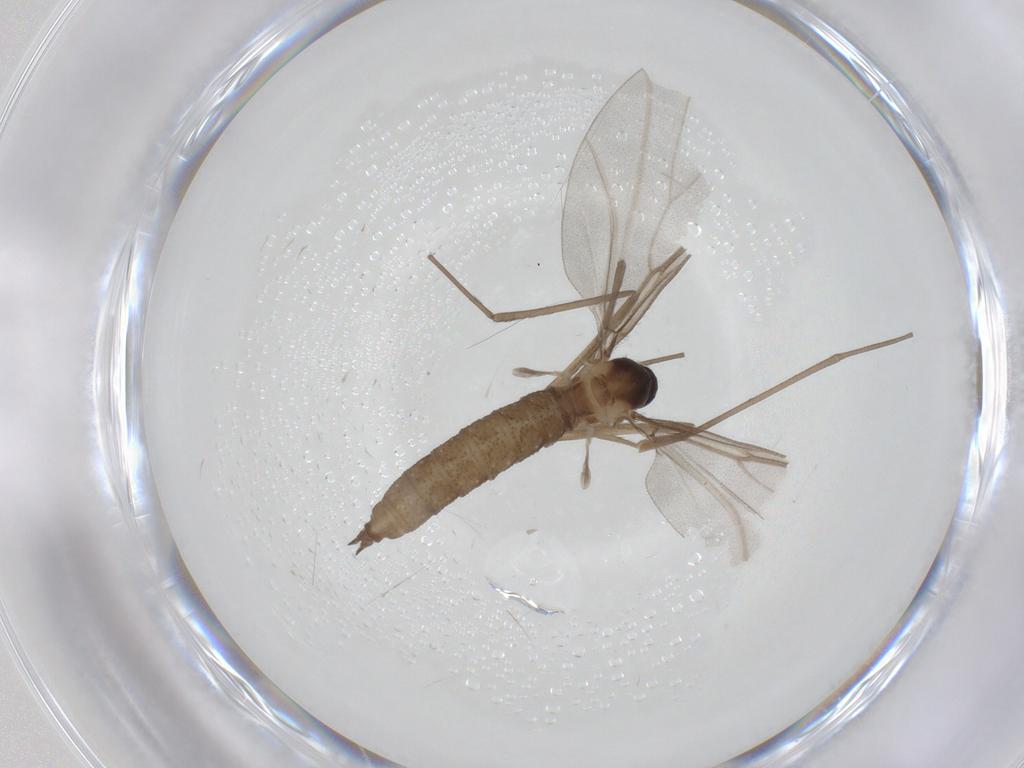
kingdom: Animalia
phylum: Arthropoda
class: Insecta
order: Diptera
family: Cecidomyiidae
